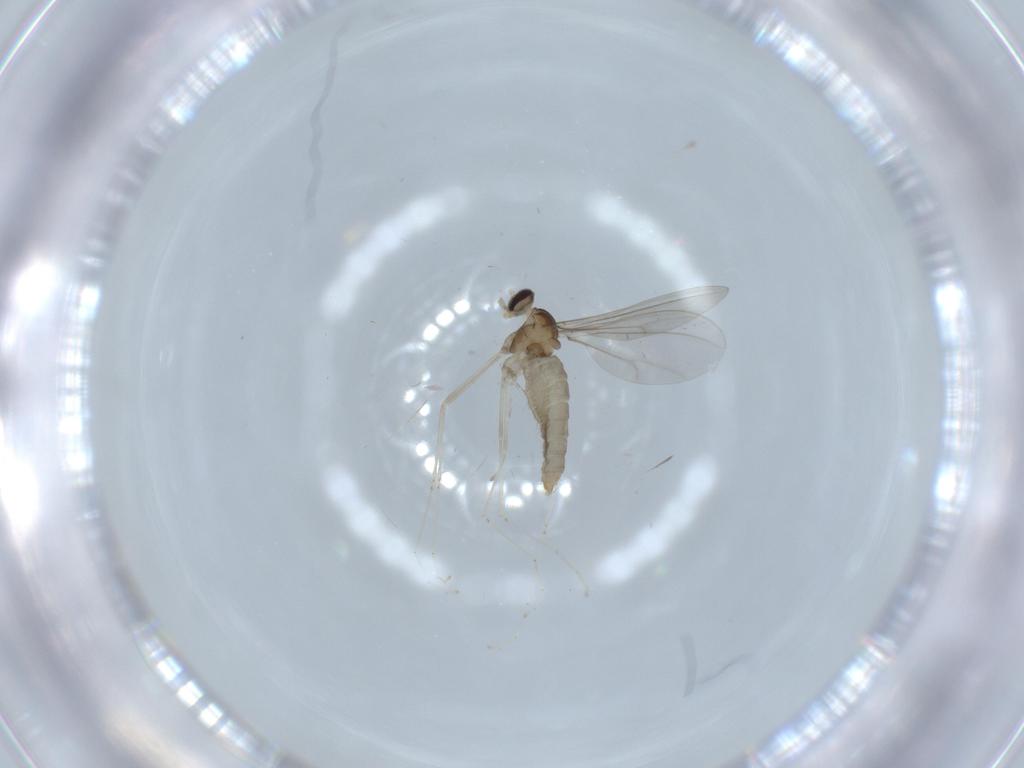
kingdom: Animalia
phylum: Arthropoda
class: Insecta
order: Diptera
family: Cecidomyiidae
